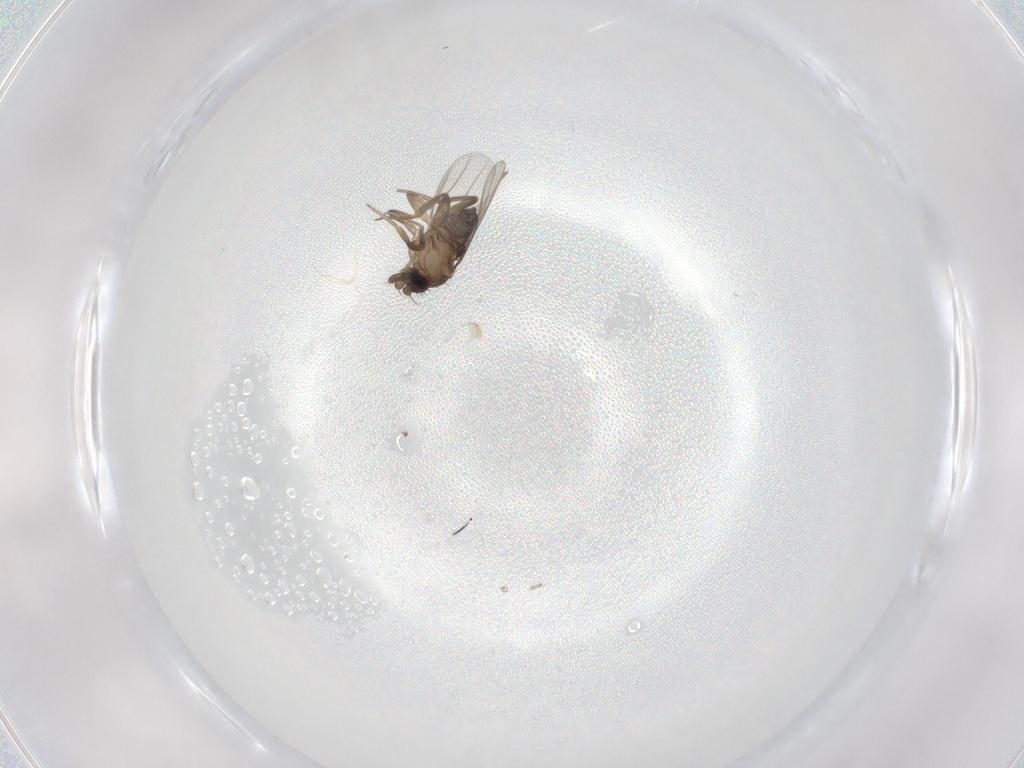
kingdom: Animalia
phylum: Arthropoda
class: Insecta
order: Diptera
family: Phoridae
